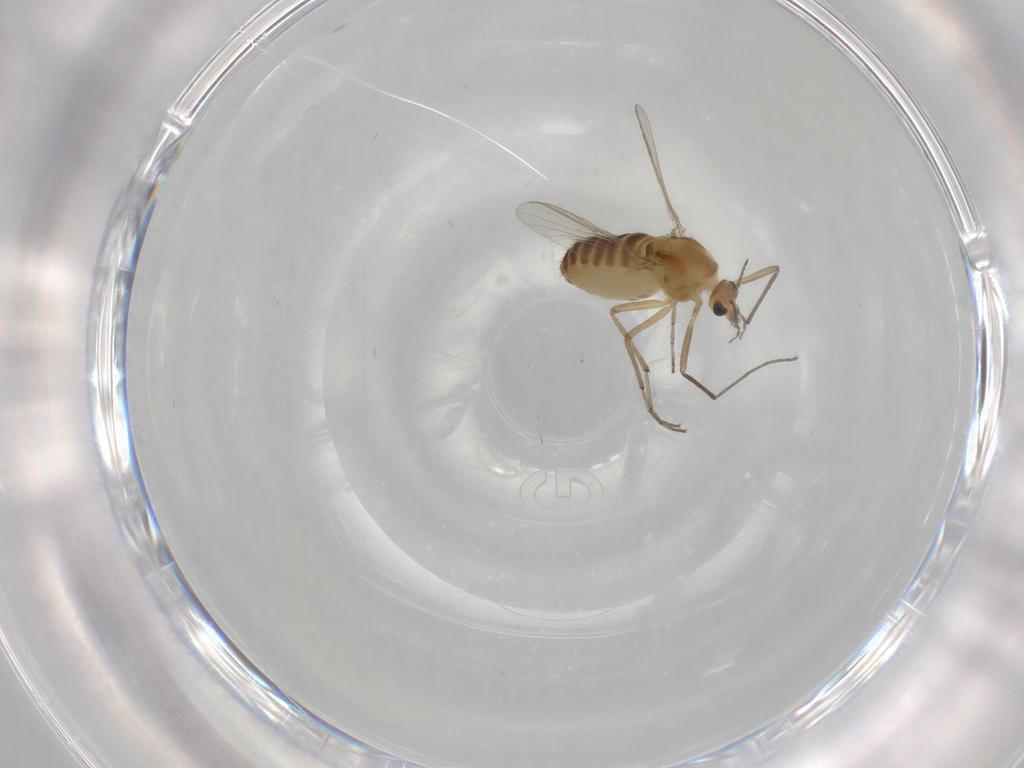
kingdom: Animalia
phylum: Arthropoda
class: Insecta
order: Diptera
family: Chironomidae
